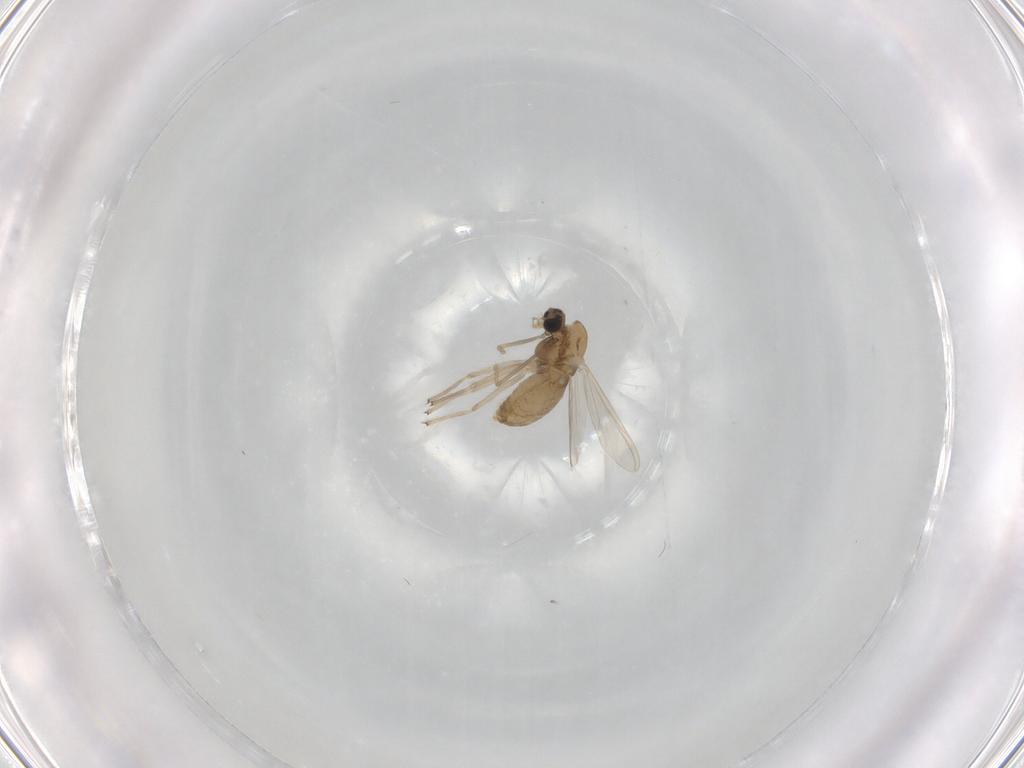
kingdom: Animalia
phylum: Arthropoda
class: Insecta
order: Diptera
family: Chironomidae
